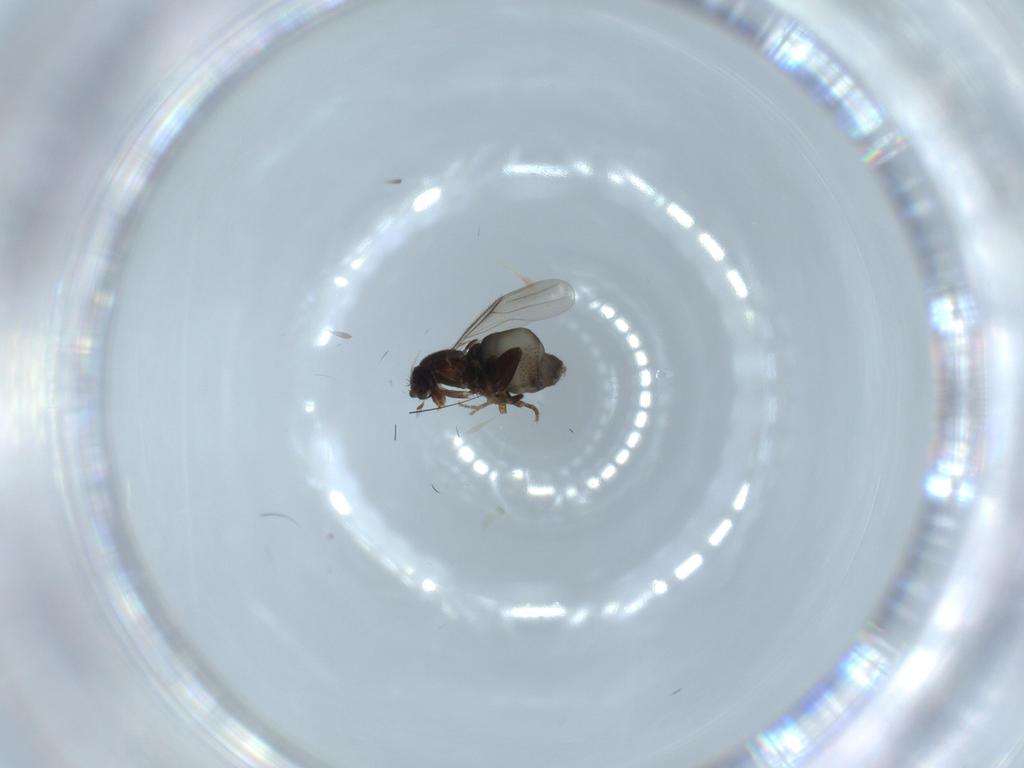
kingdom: Animalia
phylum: Arthropoda
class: Insecta
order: Diptera
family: Phoridae
